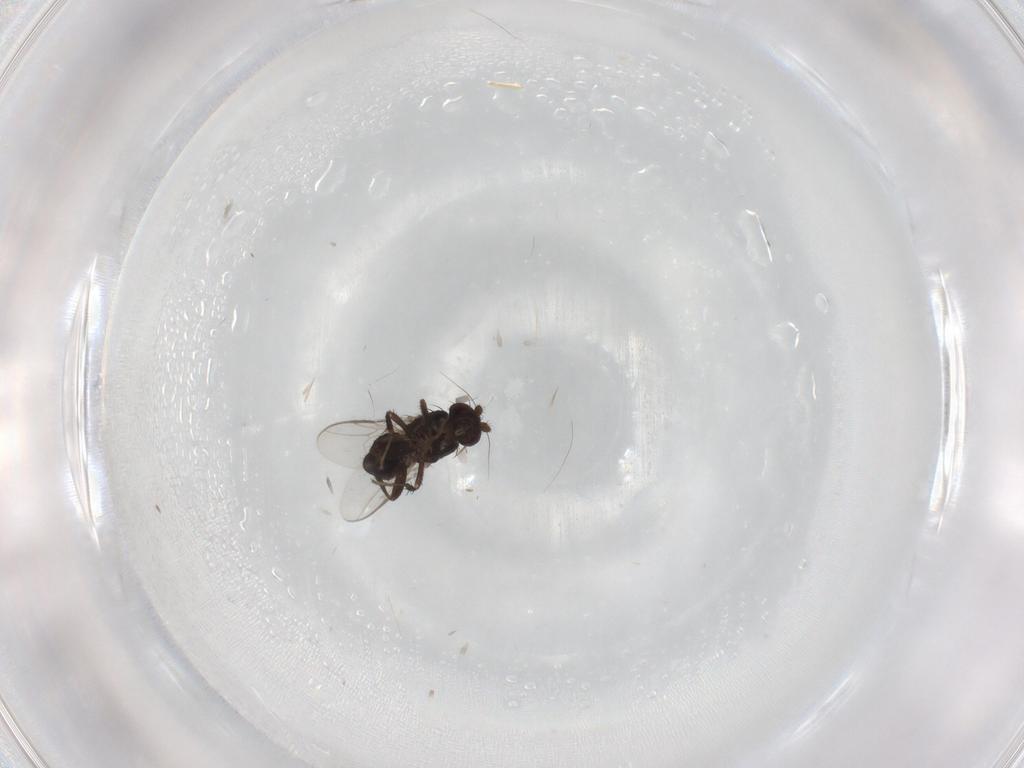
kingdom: Animalia
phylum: Arthropoda
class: Insecta
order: Diptera
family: Sphaeroceridae
